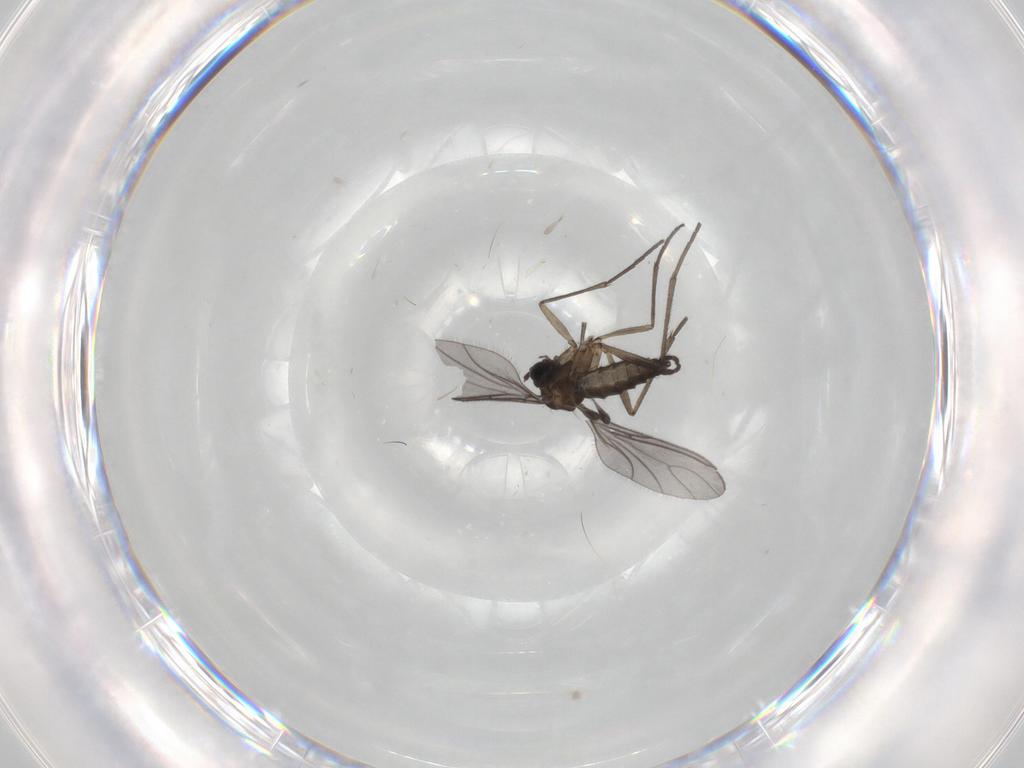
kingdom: Animalia
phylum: Arthropoda
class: Insecta
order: Diptera
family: Sciaridae
